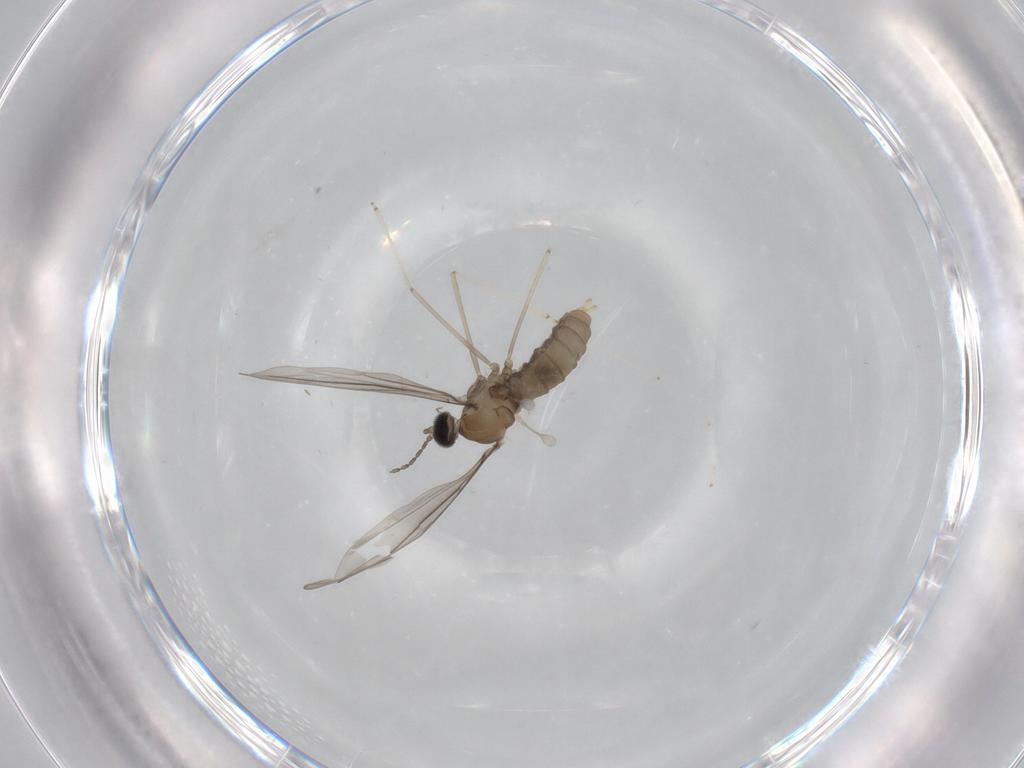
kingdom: Animalia
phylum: Arthropoda
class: Insecta
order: Diptera
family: Cecidomyiidae
